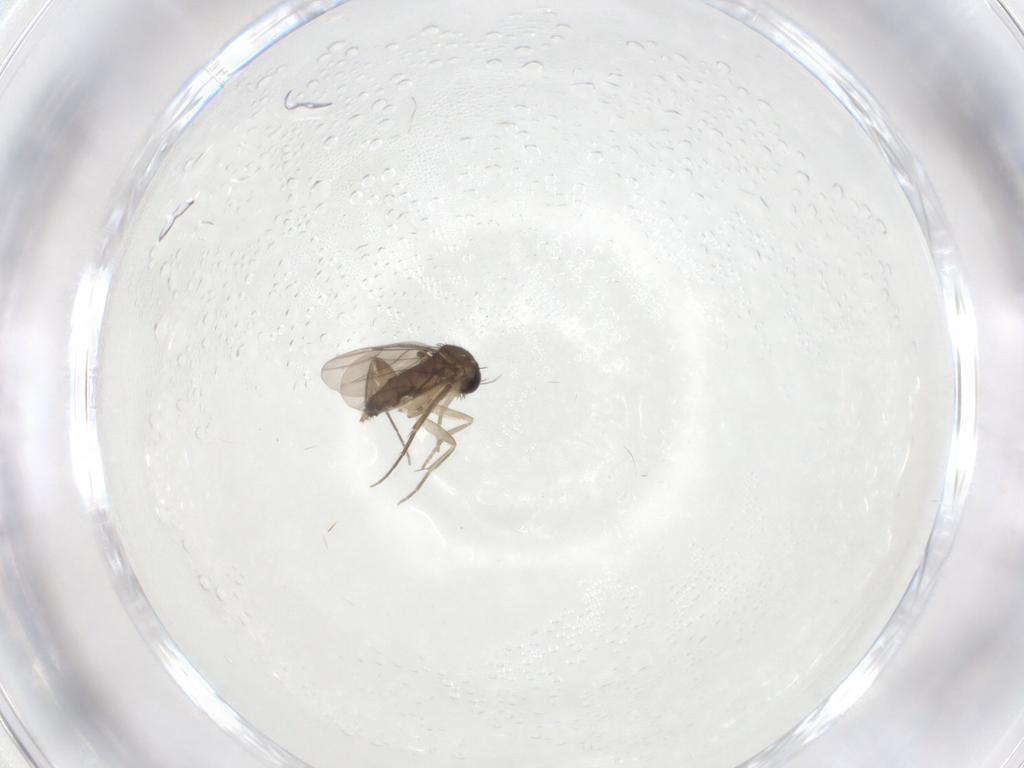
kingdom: Animalia
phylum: Arthropoda
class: Insecta
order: Diptera
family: Phoridae
